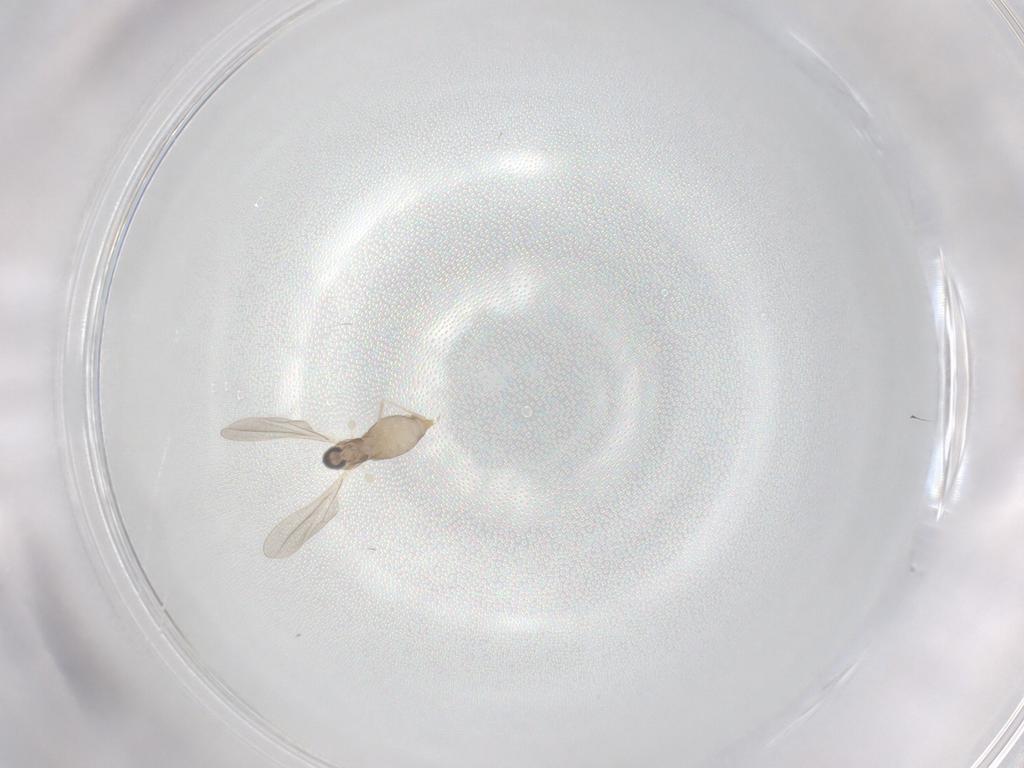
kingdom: Animalia
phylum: Arthropoda
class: Insecta
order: Diptera
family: Cecidomyiidae
